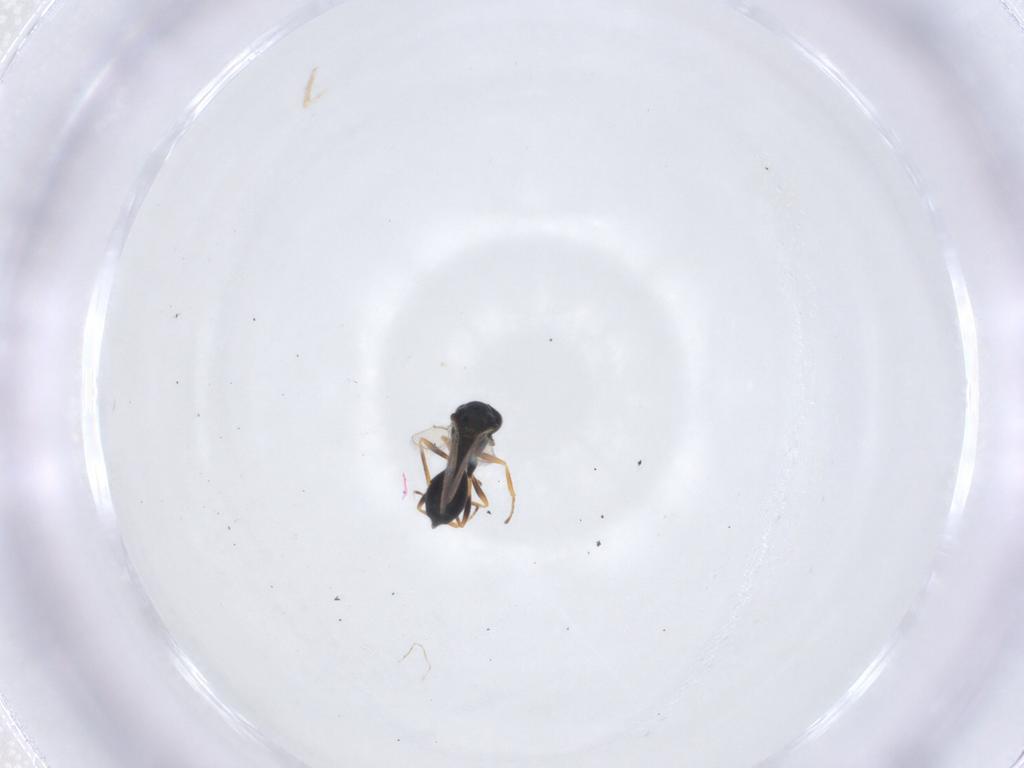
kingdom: Animalia
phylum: Arthropoda
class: Insecta
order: Hymenoptera
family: Chalcidoidea_incertae_sedis
